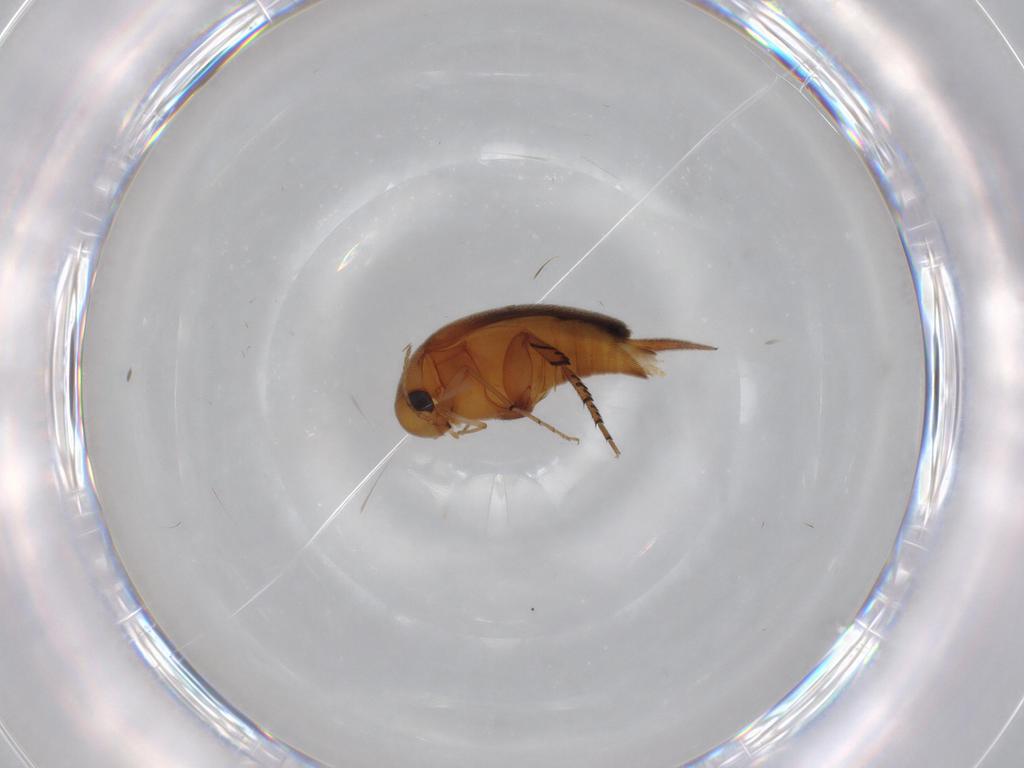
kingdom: Animalia
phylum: Arthropoda
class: Insecta
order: Coleoptera
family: Mordellidae
